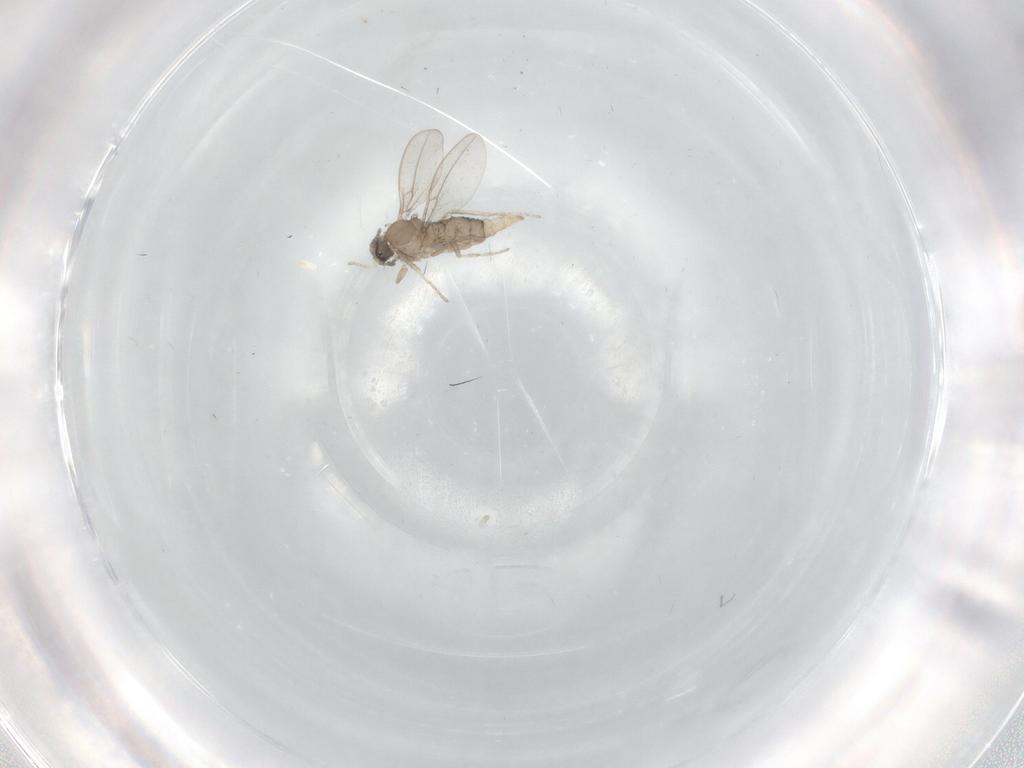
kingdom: Animalia
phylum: Arthropoda
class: Insecta
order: Diptera
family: Cecidomyiidae
